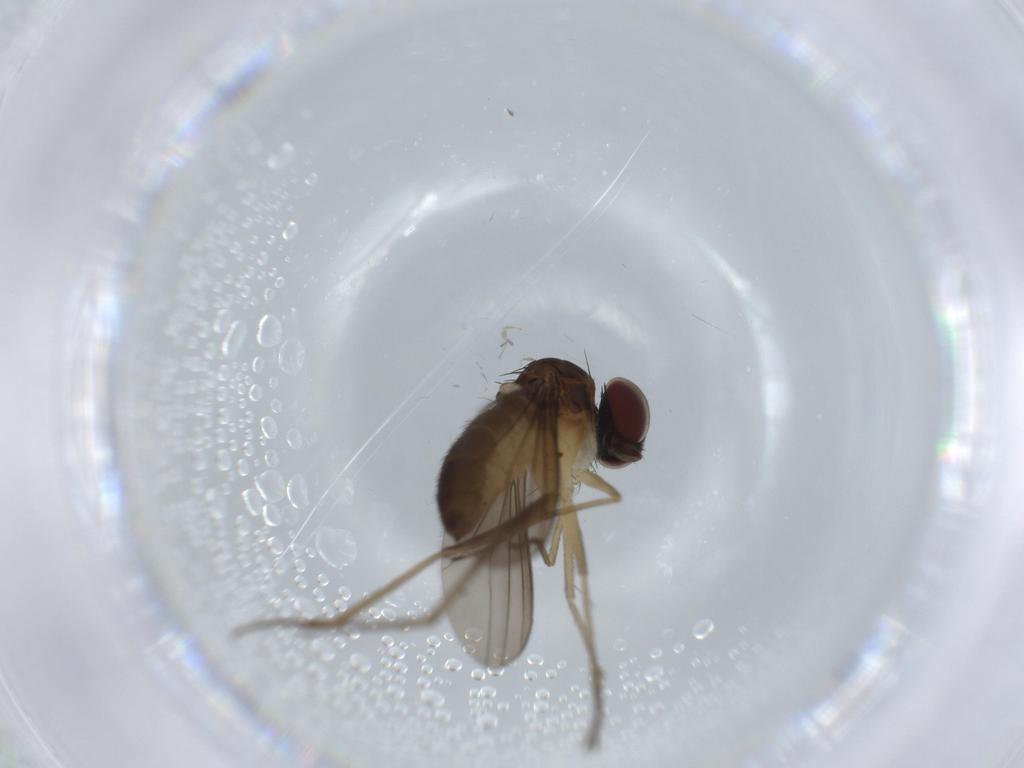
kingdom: Animalia
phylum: Arthropoda
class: Insecta
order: Diptera
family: Dolichopodidae
